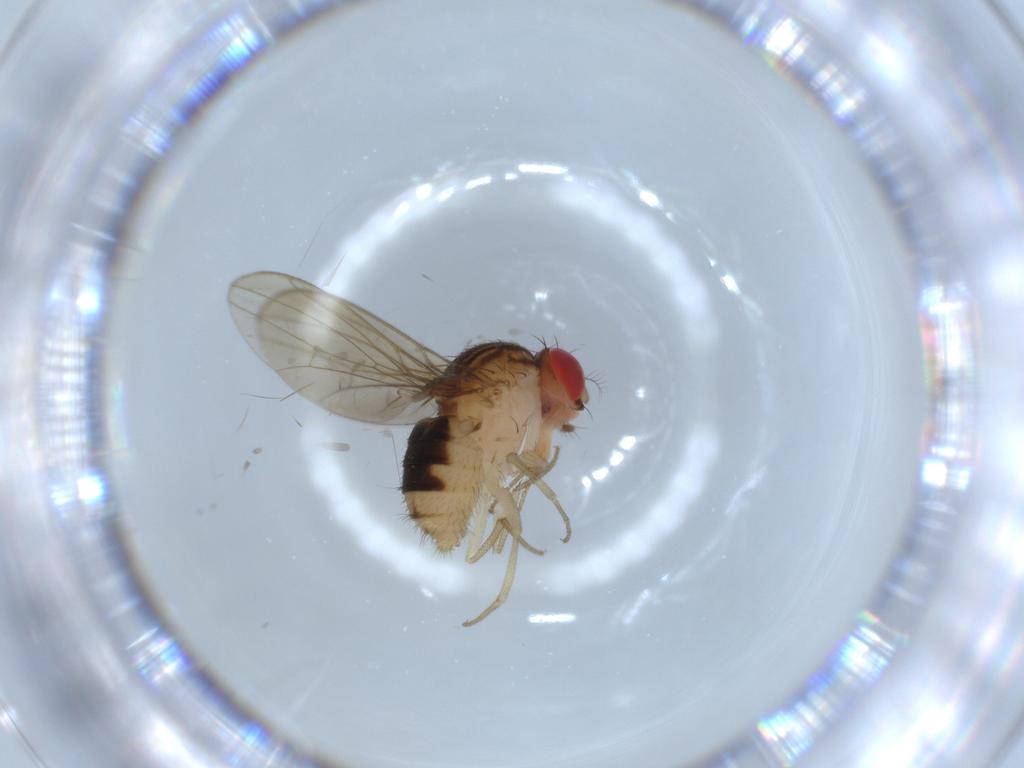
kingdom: Animalia
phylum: Arthropoda
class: Insecta
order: Diptera
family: Drosophilidae
